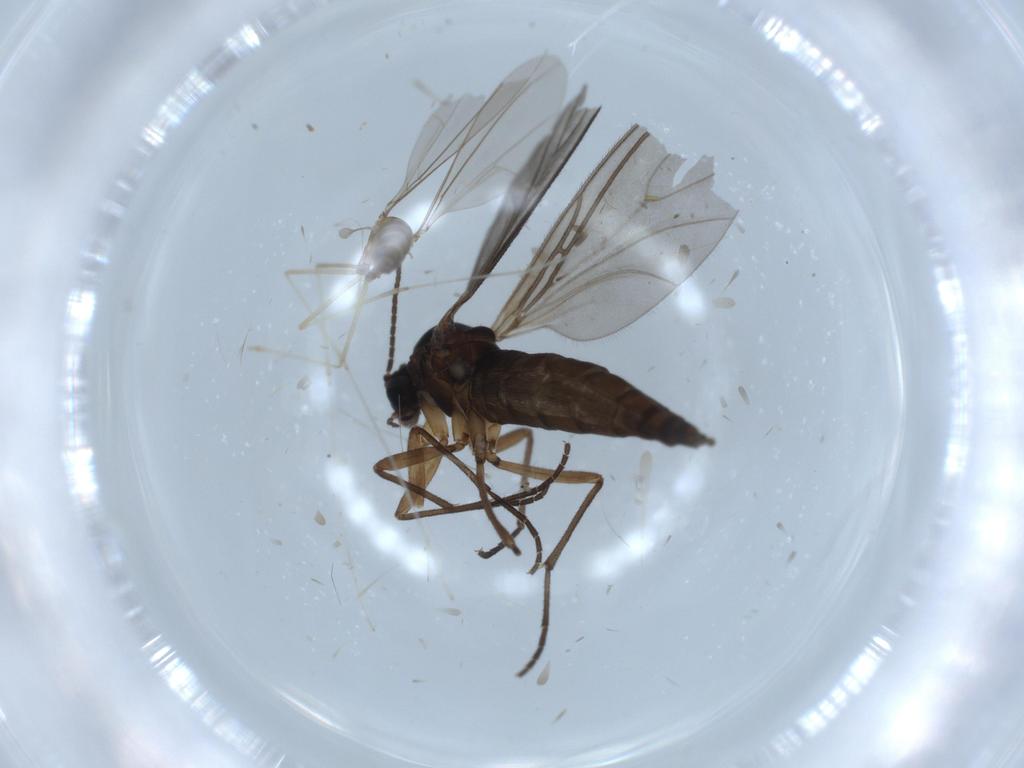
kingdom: Animalia
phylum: Arthropoda
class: Insecta
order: Diptera
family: Sciaridae
